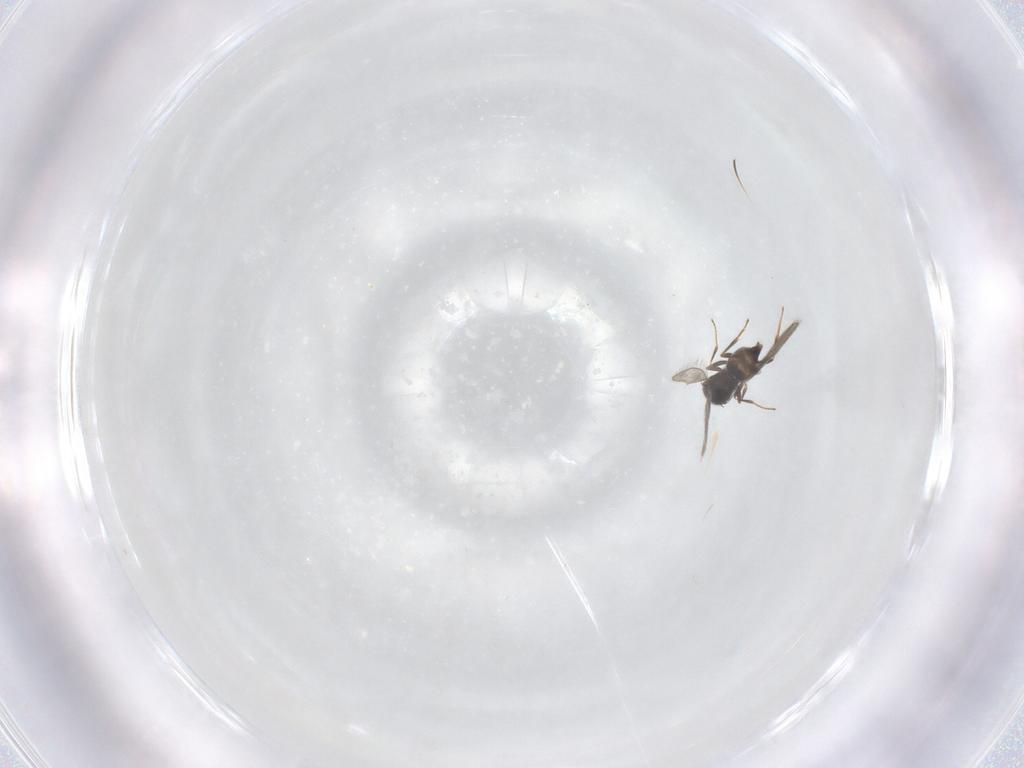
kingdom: Animalia
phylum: Arthropoda
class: Insecta
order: Hymenoptera
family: Ceraphronidae
